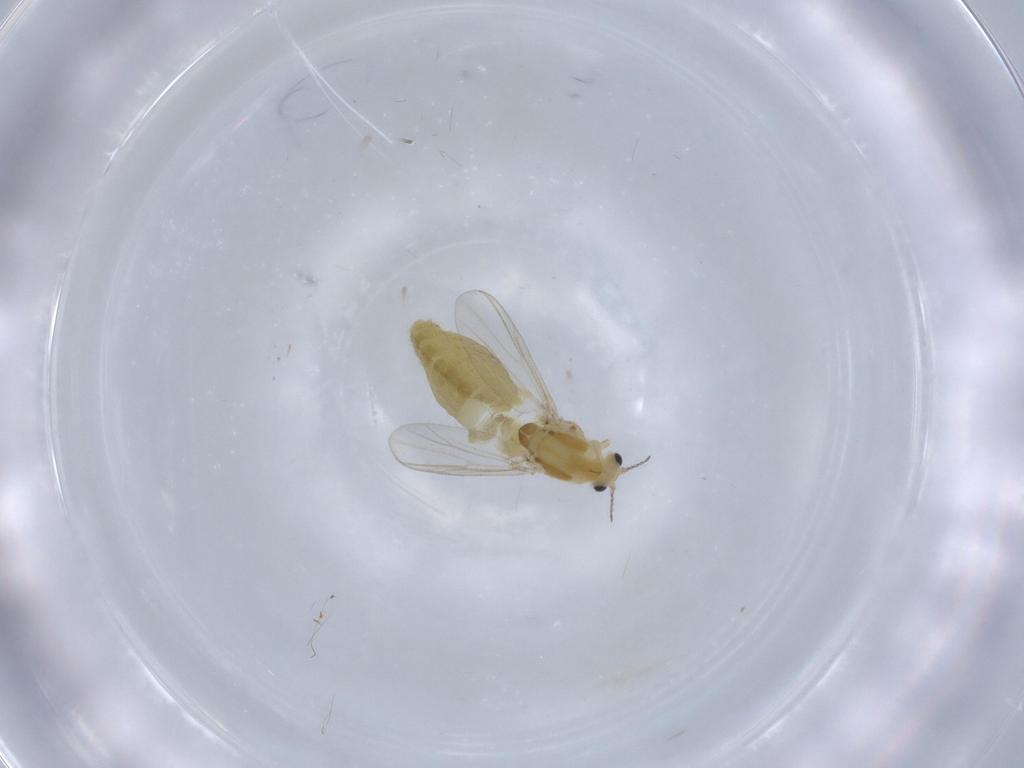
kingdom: Animalia
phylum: Arthropoda
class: Insecta
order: Diptera
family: Chironomidae
